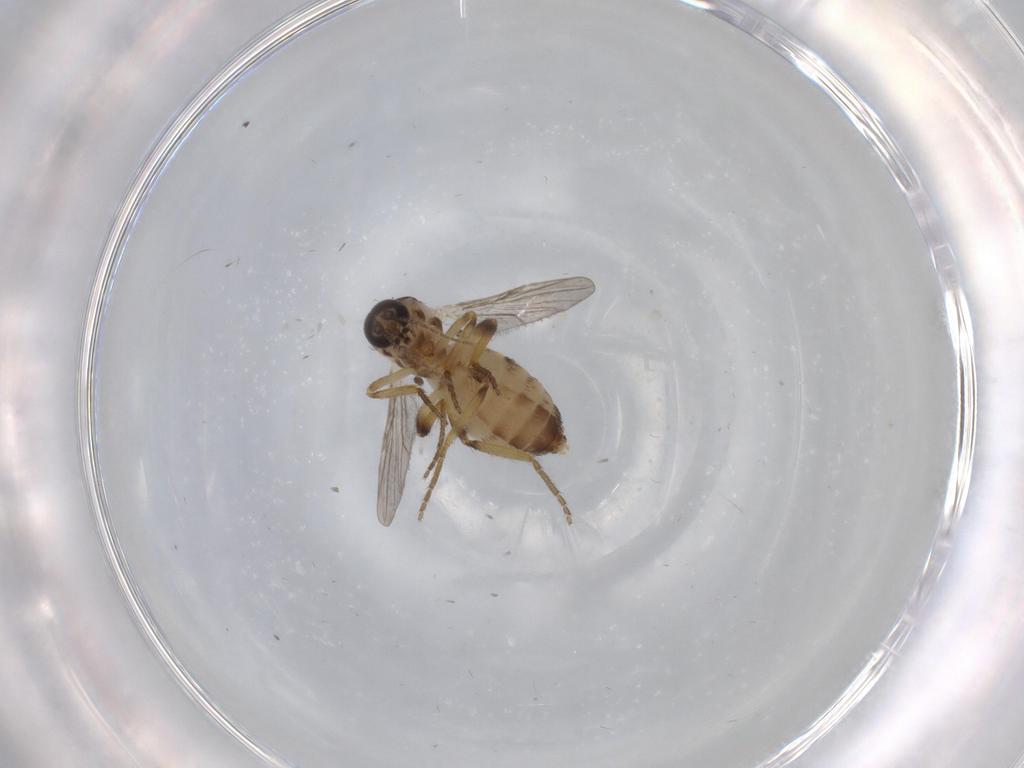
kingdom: Animalia
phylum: Arthropoda
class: Insecta
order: Diptera
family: Ceratopogonidae
